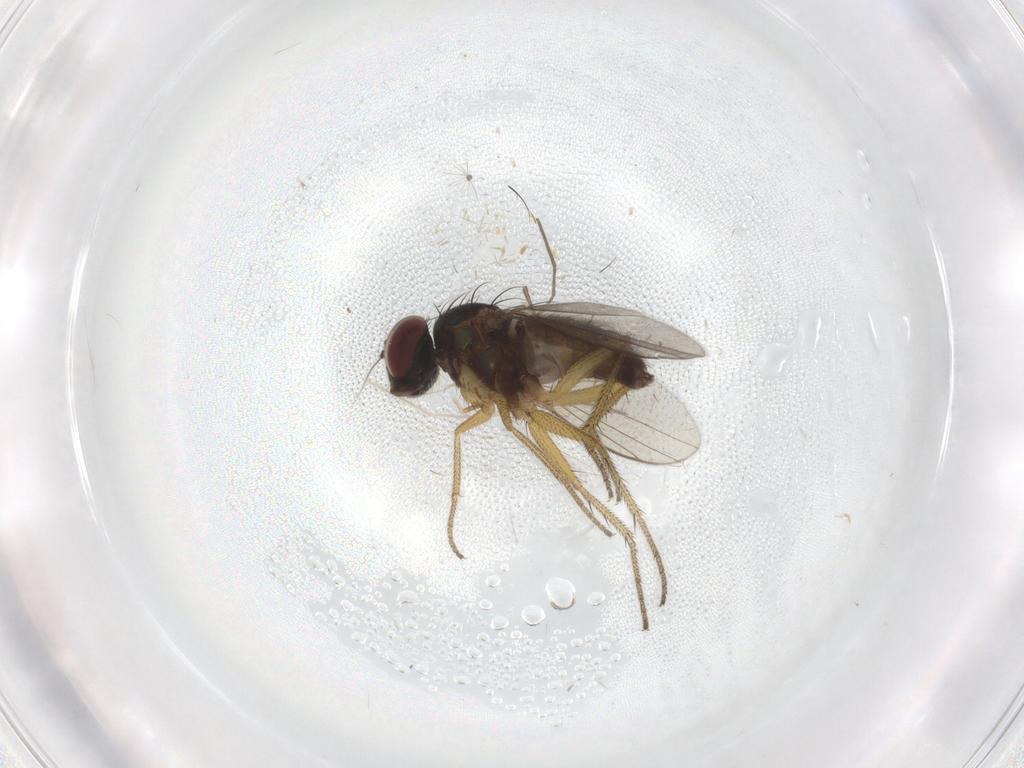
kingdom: Animalia
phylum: Arthropoda
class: Insecta
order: Diptera
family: Chironomidae
